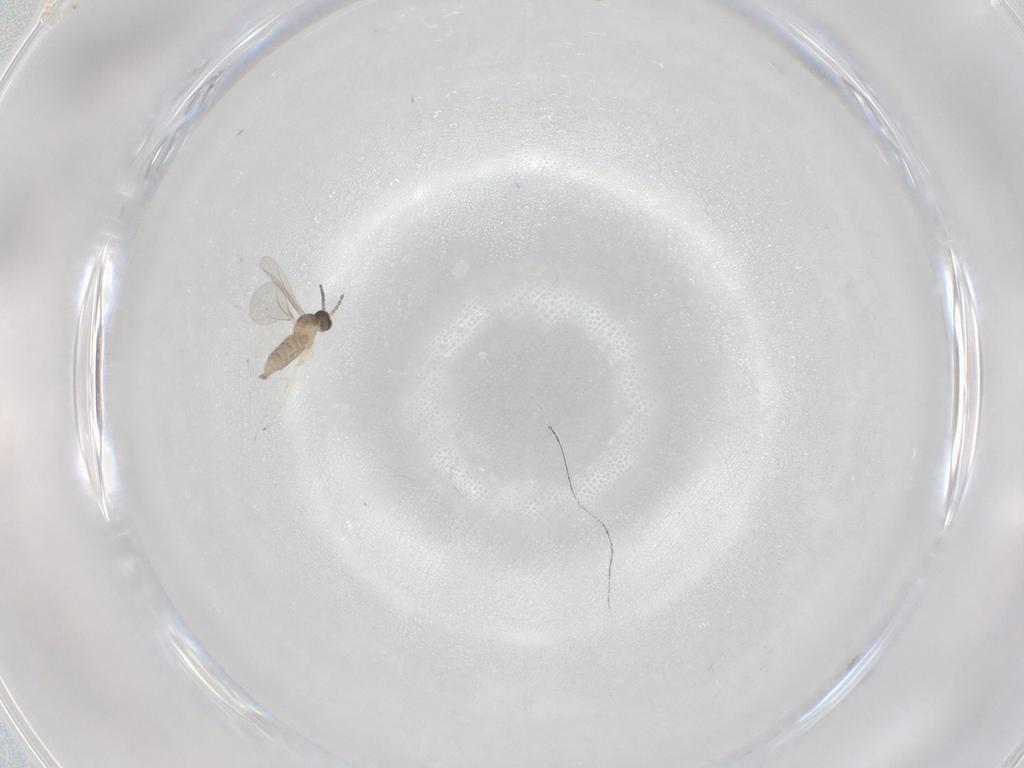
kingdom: Animalia
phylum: Arthropoda
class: Insecta
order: Diptera
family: Cecidomyiidae
